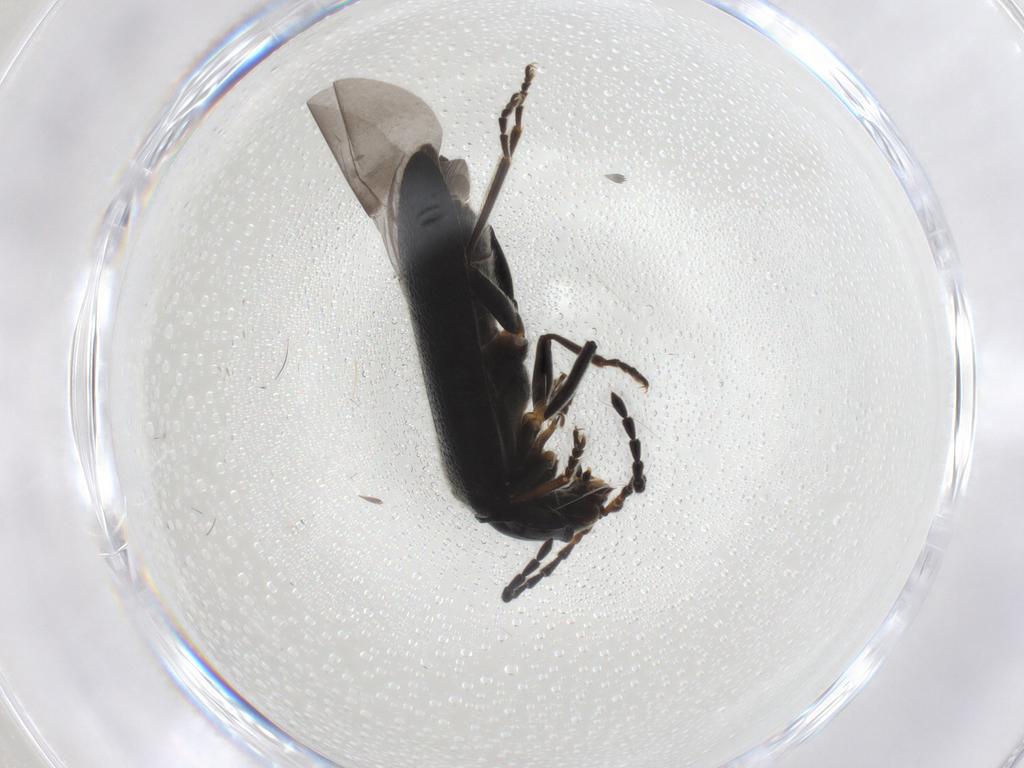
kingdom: Animalia
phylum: Arthropoda
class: Insecta
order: Coleoptera
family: Cantharidae
